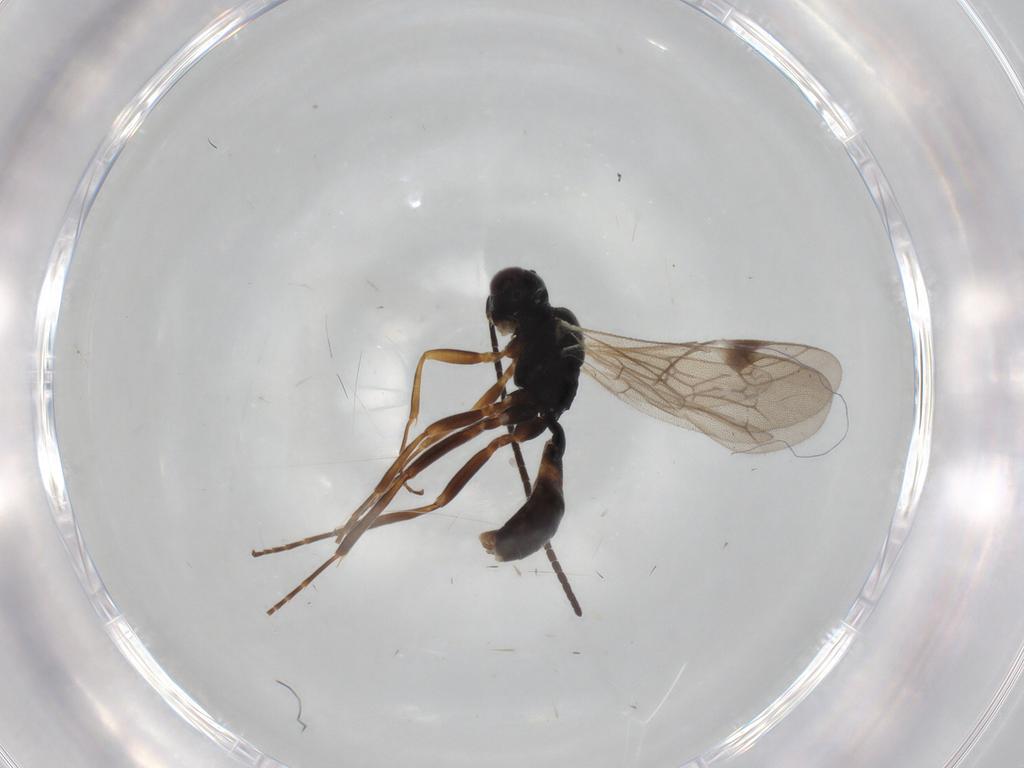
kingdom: Animalia
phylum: Arthropoda
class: Insecta
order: Hymenoptera
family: Ichneumonidae
